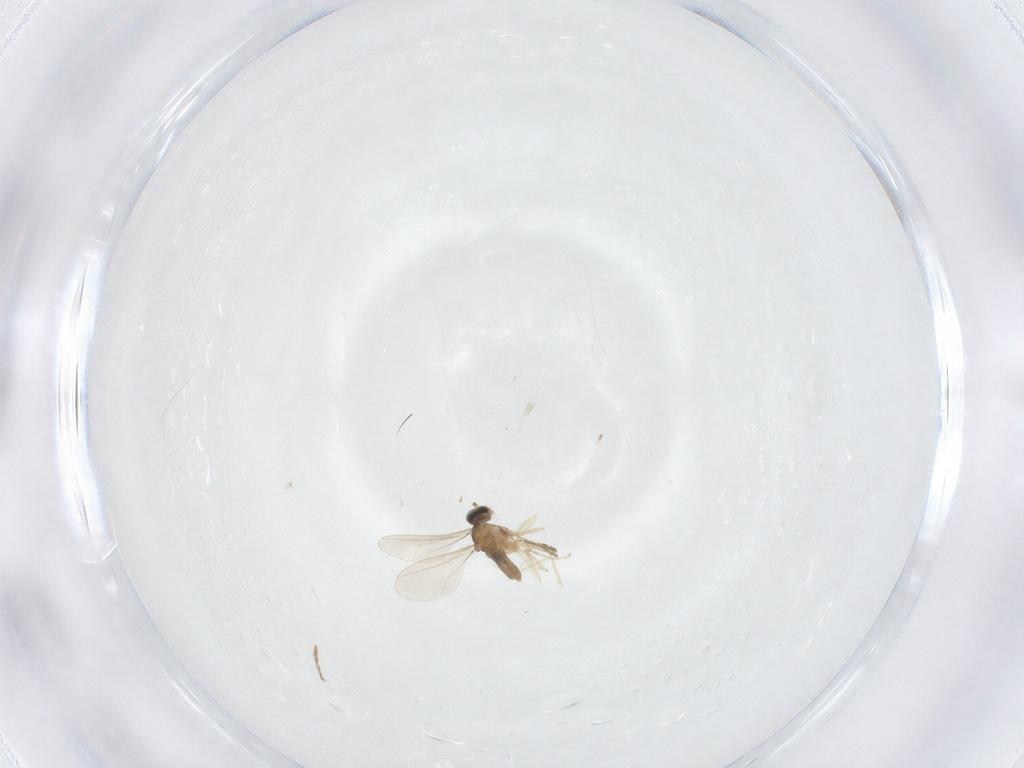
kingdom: Animalia
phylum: Arthropoda
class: Insecta
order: Diptera
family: Cecidomyiidae
